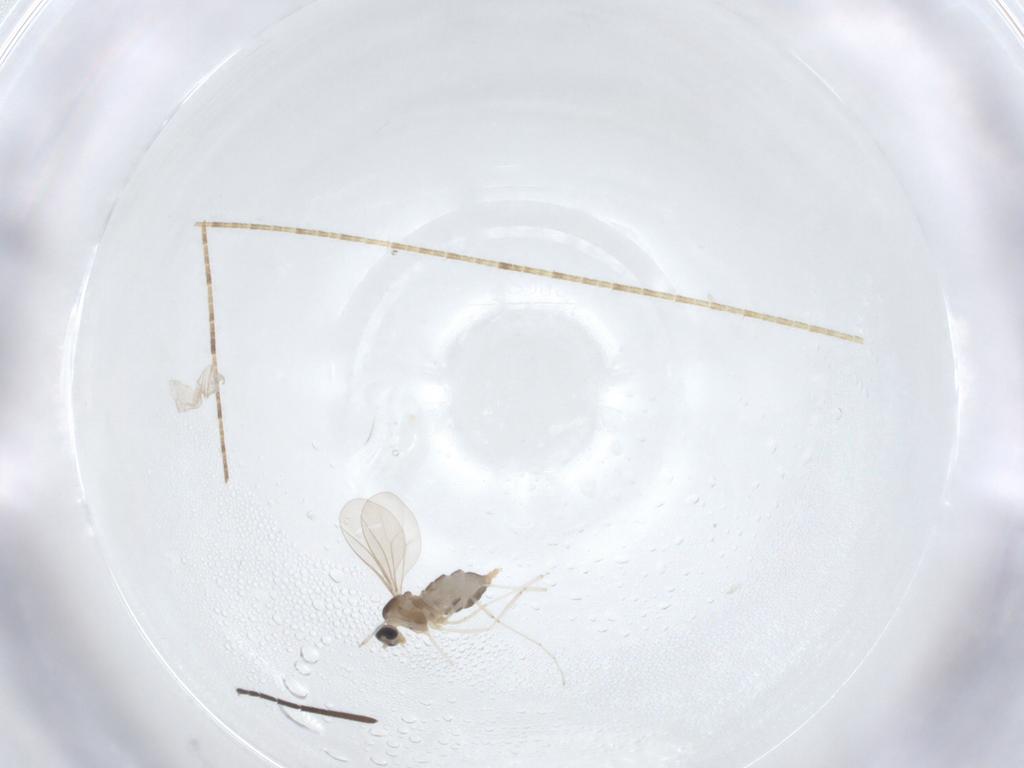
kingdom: Animalia
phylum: Arthropoda
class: Insecta
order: Diptera
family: Cecidomyiidae
